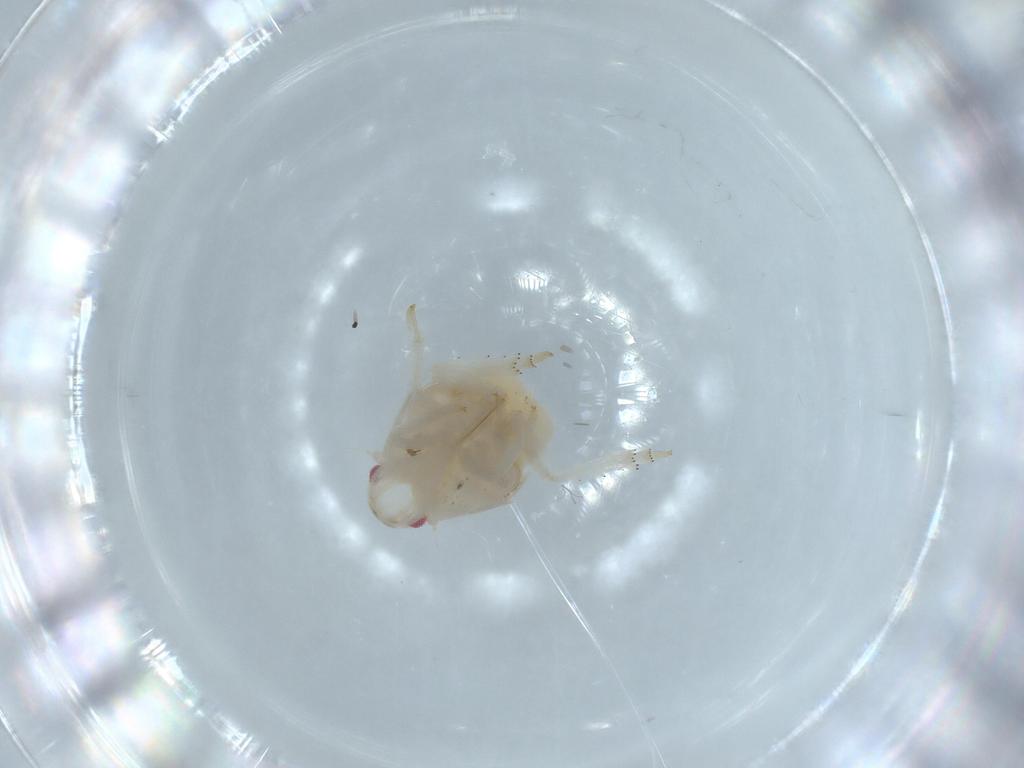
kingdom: Animalia
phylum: Arthropoda
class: Insecta
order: Hemiptera
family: Flatidae
